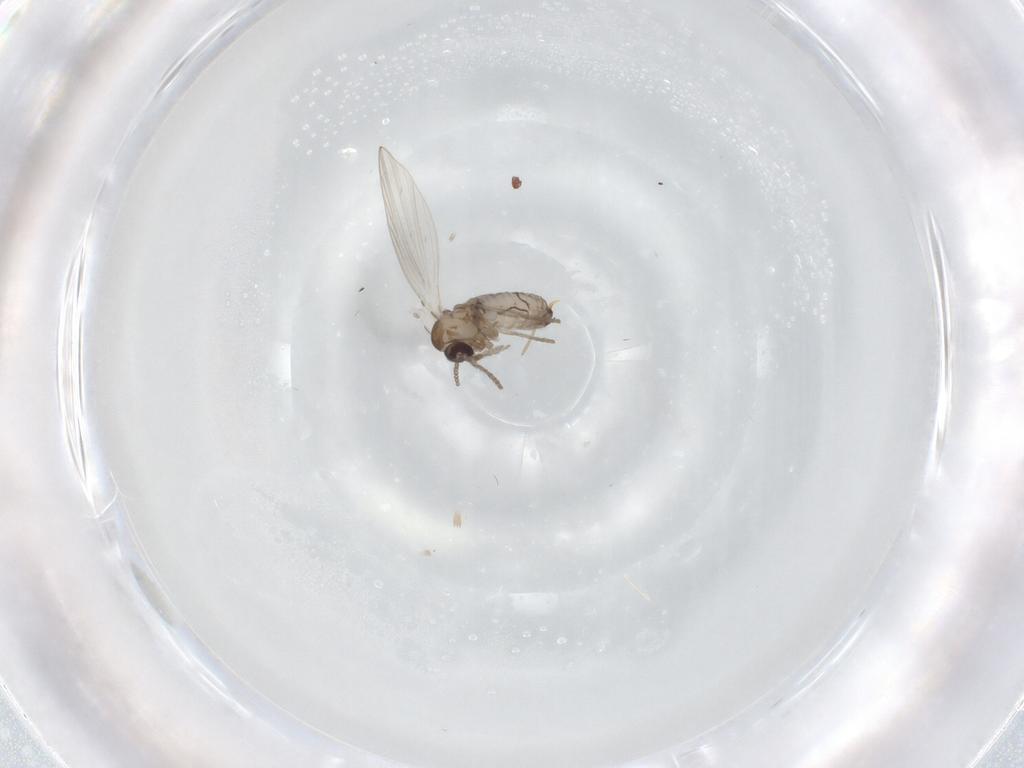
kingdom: Animalia
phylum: Arthropoda
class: Insecta
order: Diptera
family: Psychodidae
